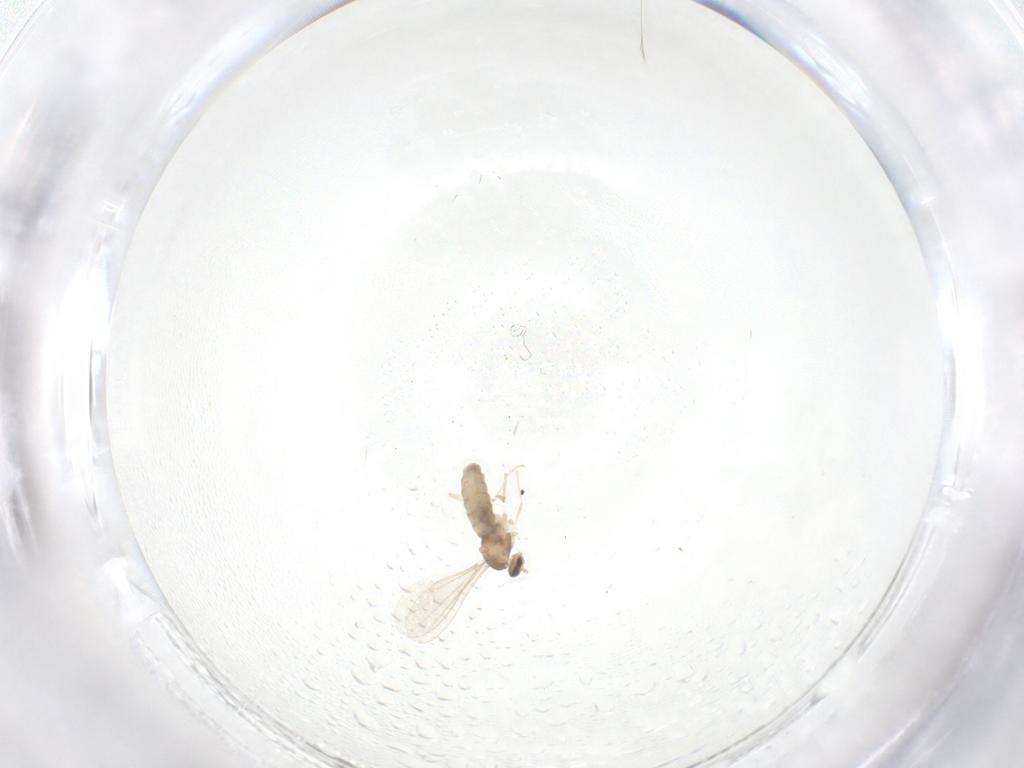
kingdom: Animalia
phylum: Arthropoda
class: Insecta
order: Diptera
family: Cecidomyiidae
